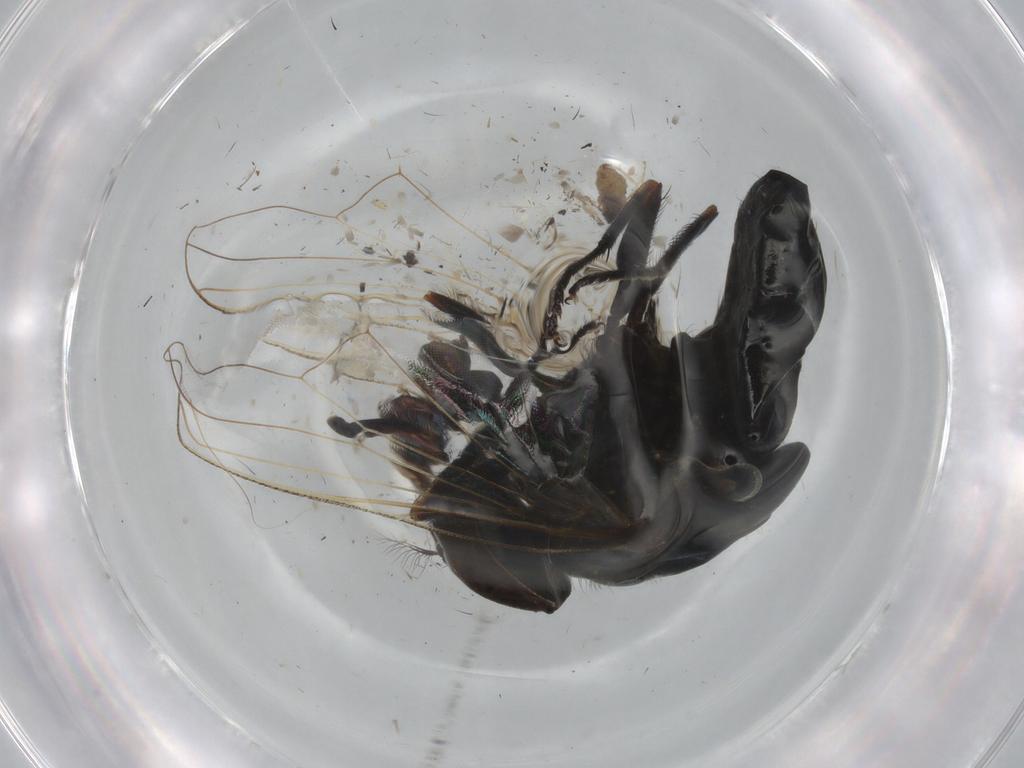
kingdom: Animalia
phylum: Arthropoda
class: Insecta
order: Diptera
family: Muscidae
